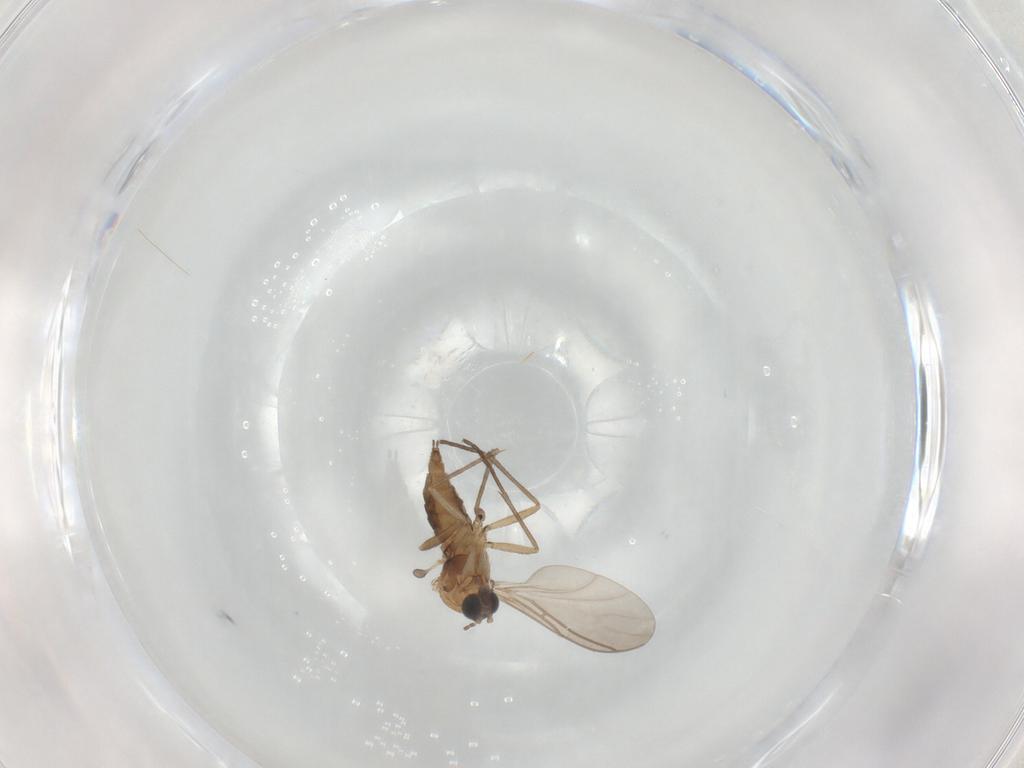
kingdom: Animalia
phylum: Arthropoda
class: Insecta
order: Diptera
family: Sciaridae
